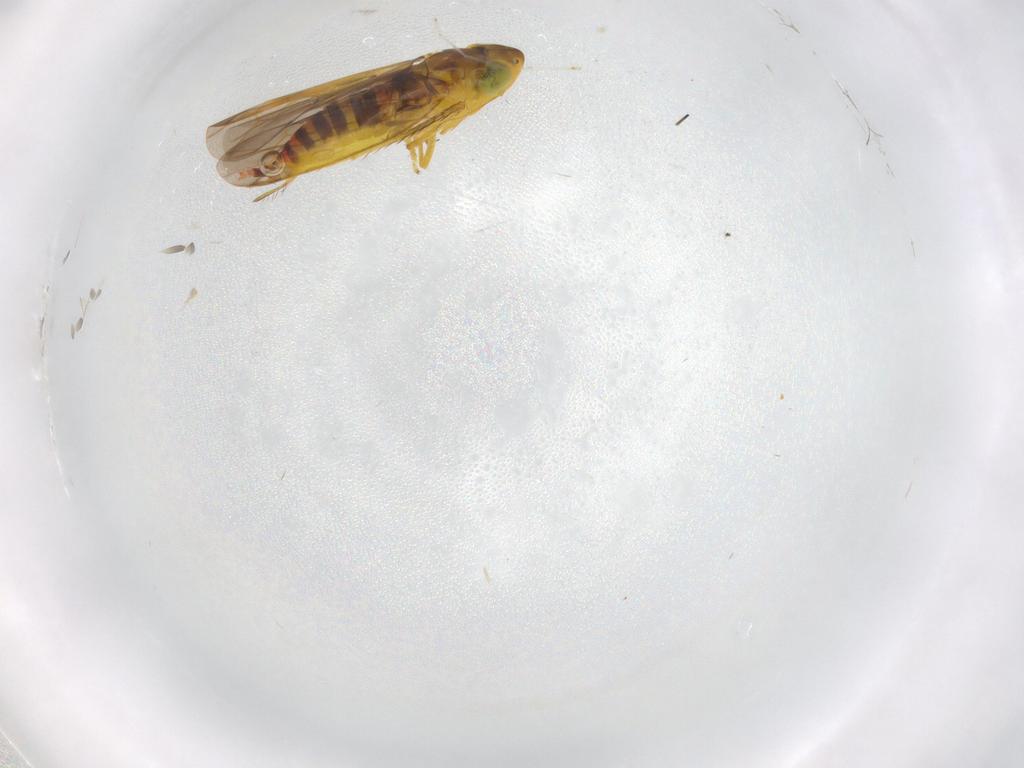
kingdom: Animalia
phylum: Arthropoda
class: Insecta
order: Hemiptera
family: Cicadellidae
